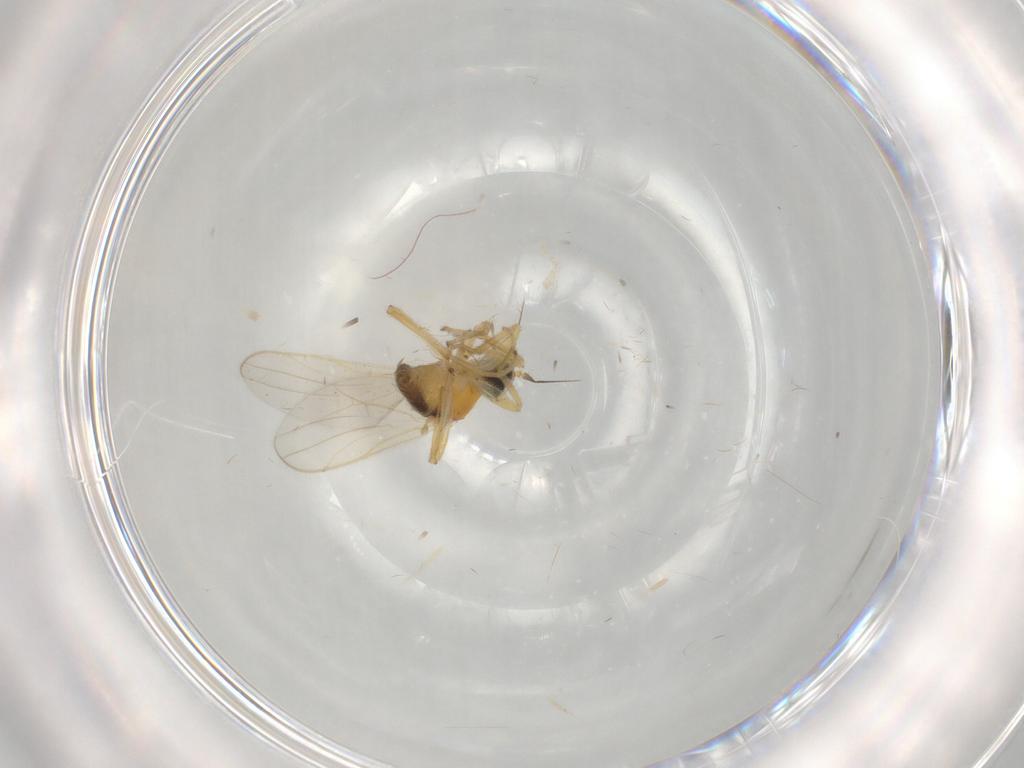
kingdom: Animalia
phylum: Arthropoda
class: Insecta
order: Diptera
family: Hybotidae
